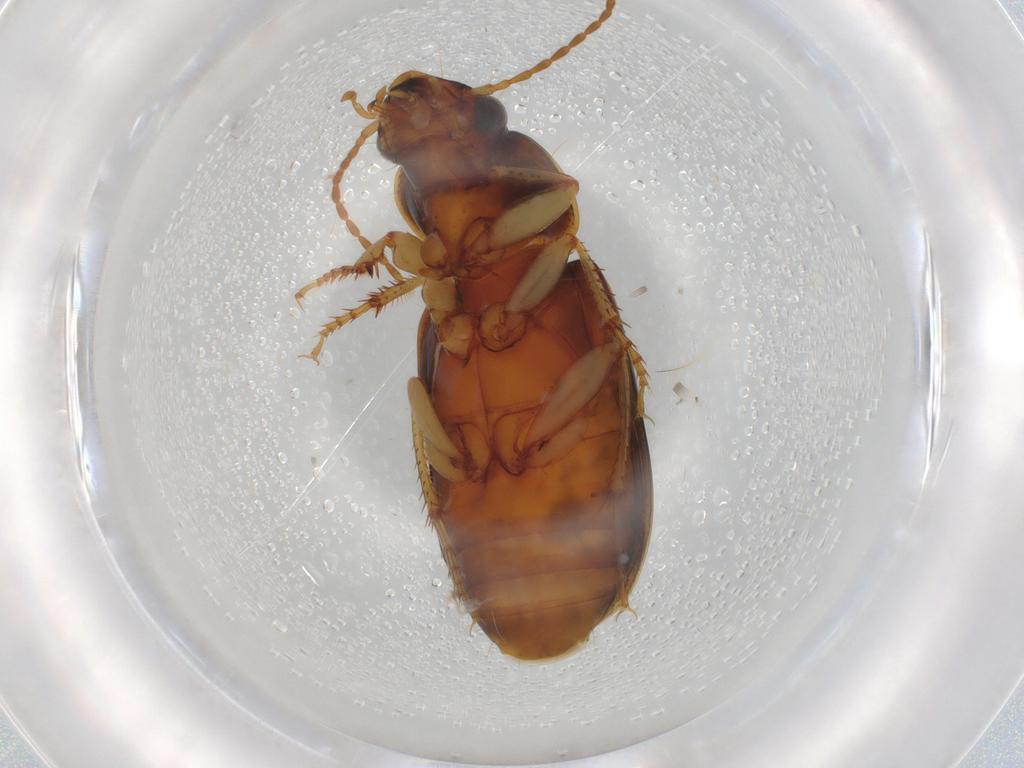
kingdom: Animalia
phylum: Arthropoda
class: Insecta
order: Coleoptera
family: Carabidae
